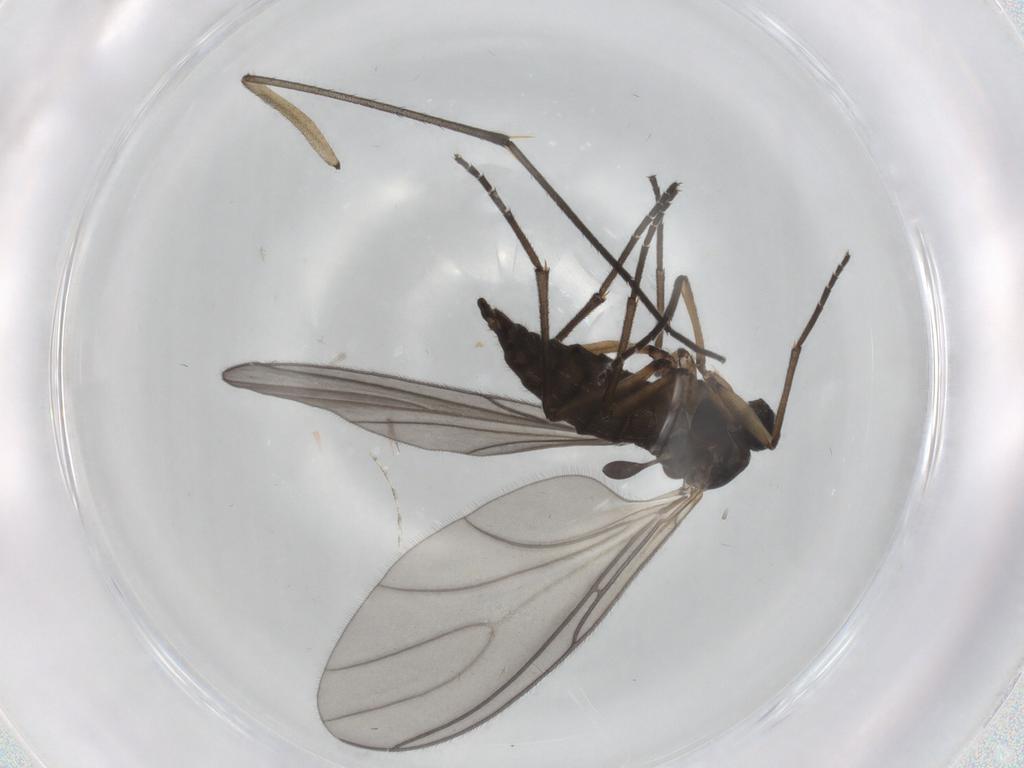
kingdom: Animalia
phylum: Arthropoda
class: Insecta
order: Diptera
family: Sciaridae
